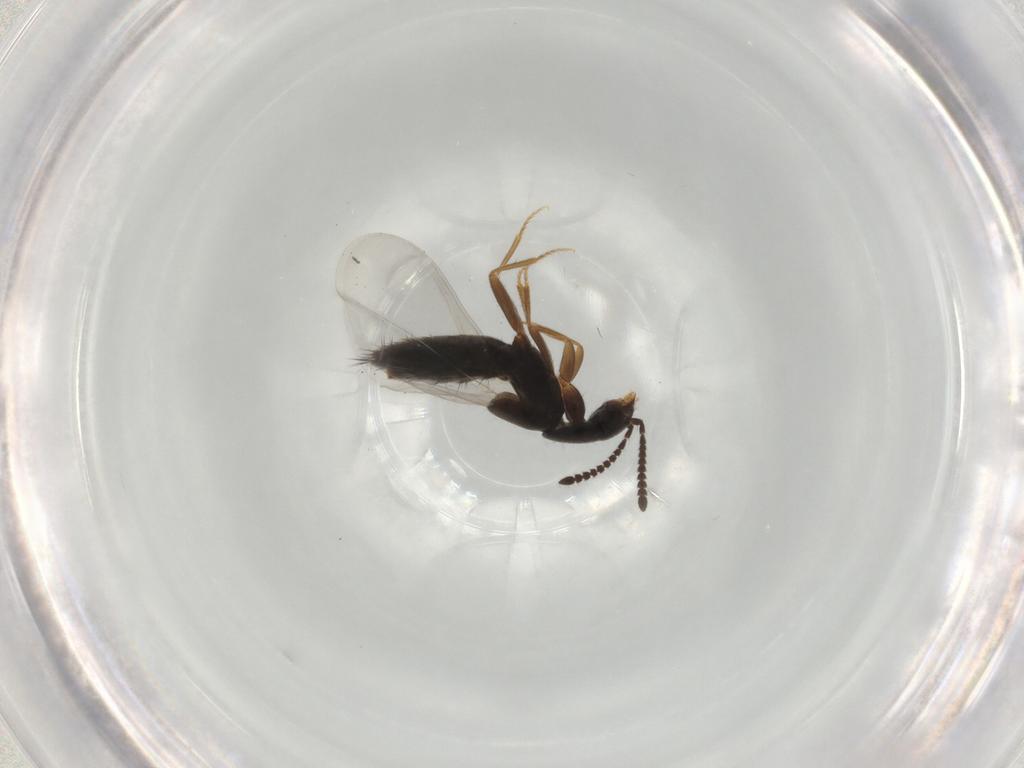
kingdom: Animalia
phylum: Arthropoda
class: Insecta
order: Coleoptera
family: Staphylinidae
